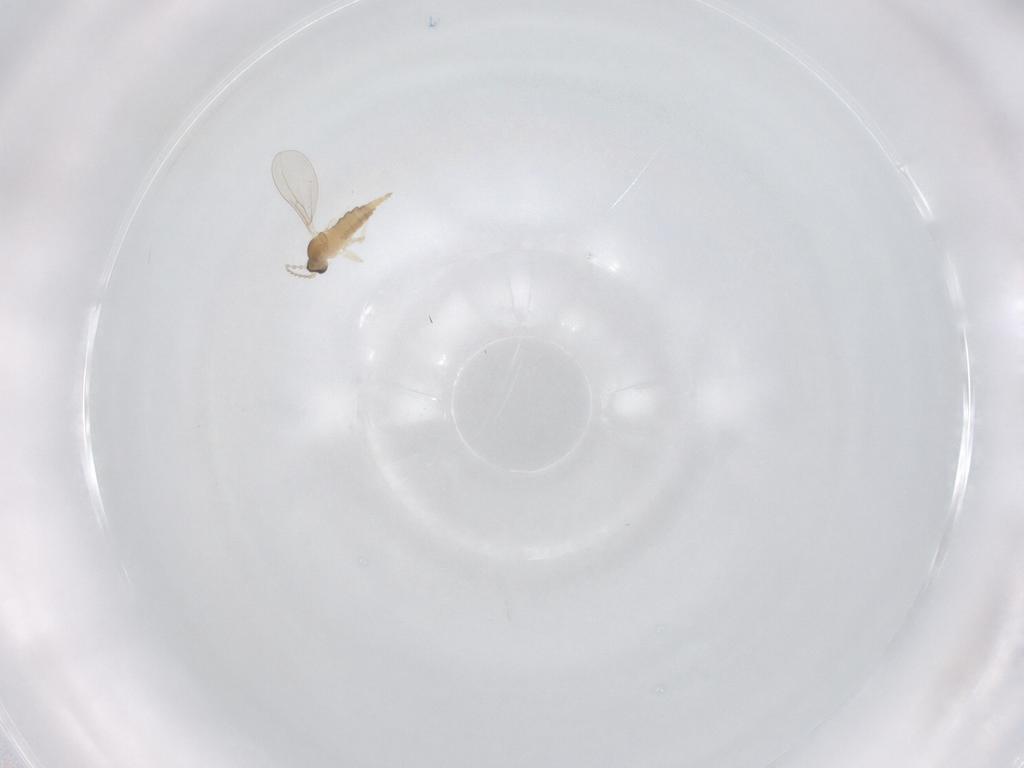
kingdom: Animalia
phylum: Arthropoda
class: Insecta
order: Diptera
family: Cecidomyiidae
